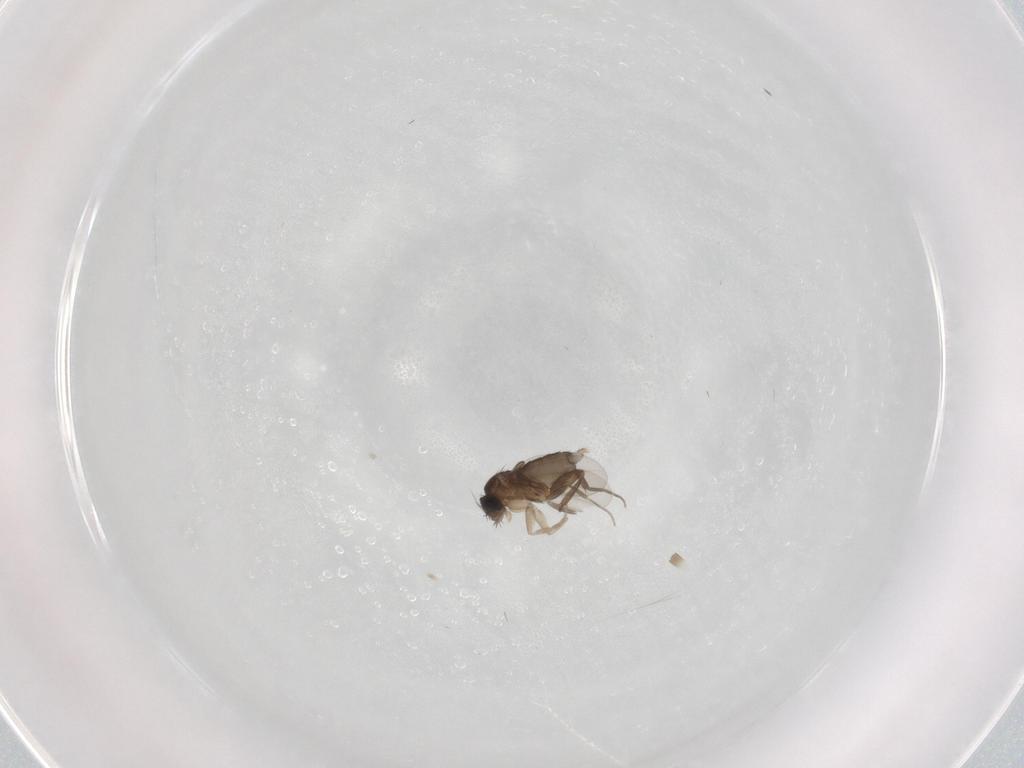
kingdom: Animalia
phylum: Arthropoda
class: Insecta
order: Diptera
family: Phoridae
